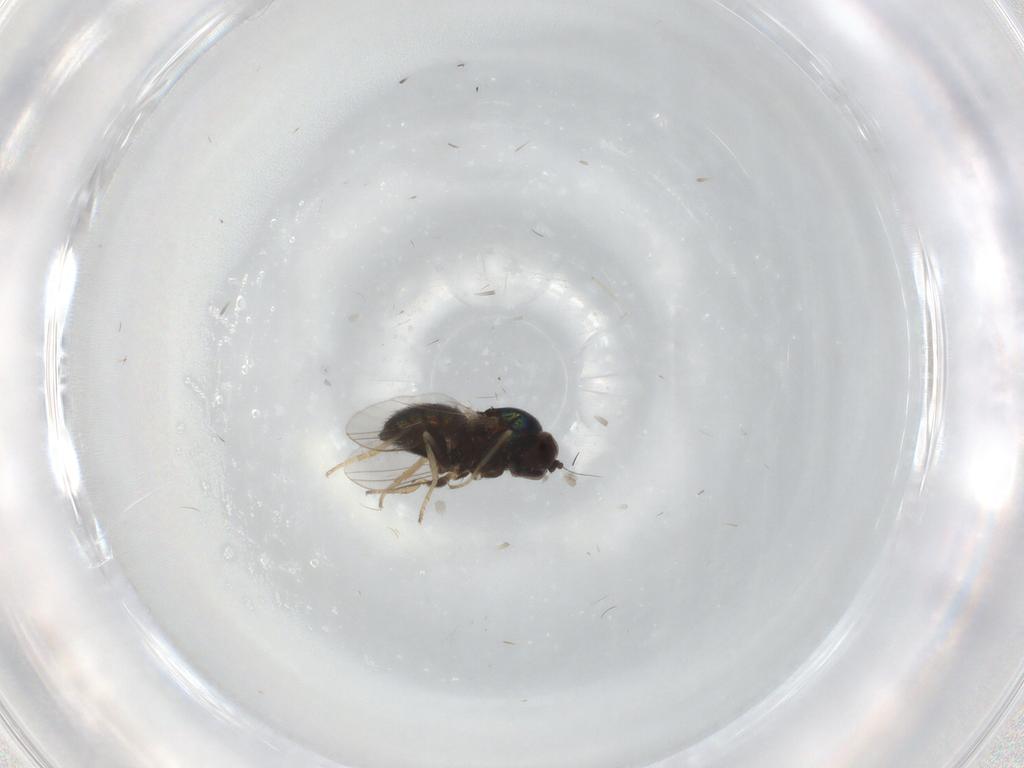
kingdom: Animalia
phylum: Arthropoda
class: Insecta
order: Diptera
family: Dolichopodidae
